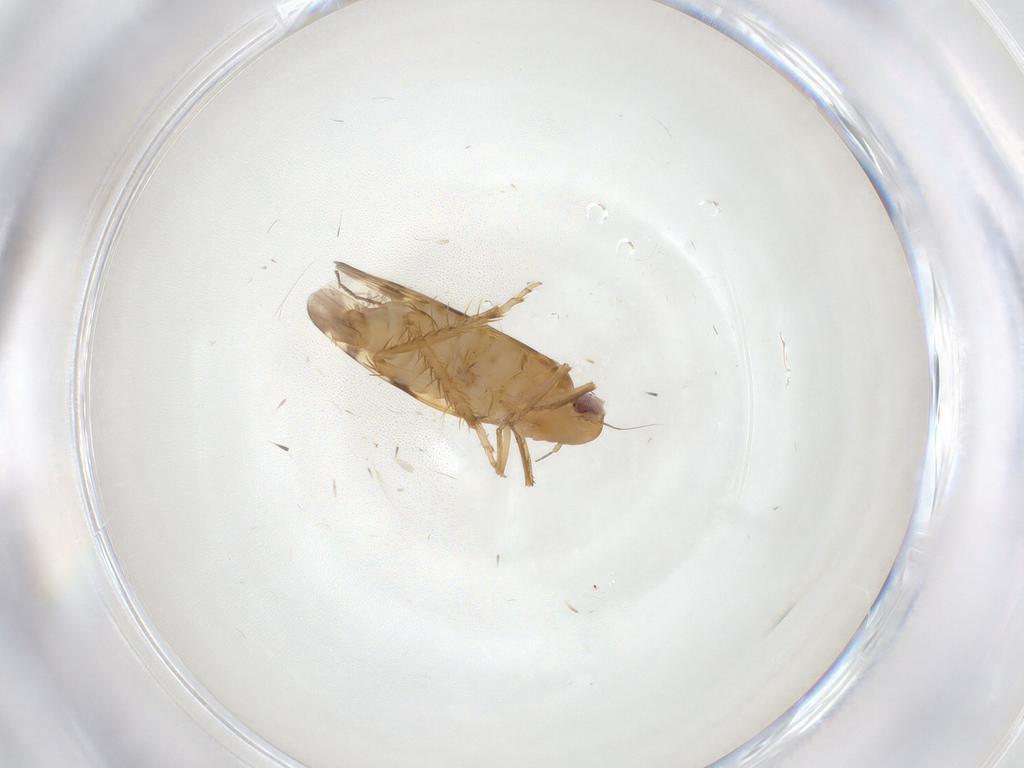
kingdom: Animalia
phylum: Arthropoda
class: Insecta
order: Hemiptera
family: Cicadellidae
